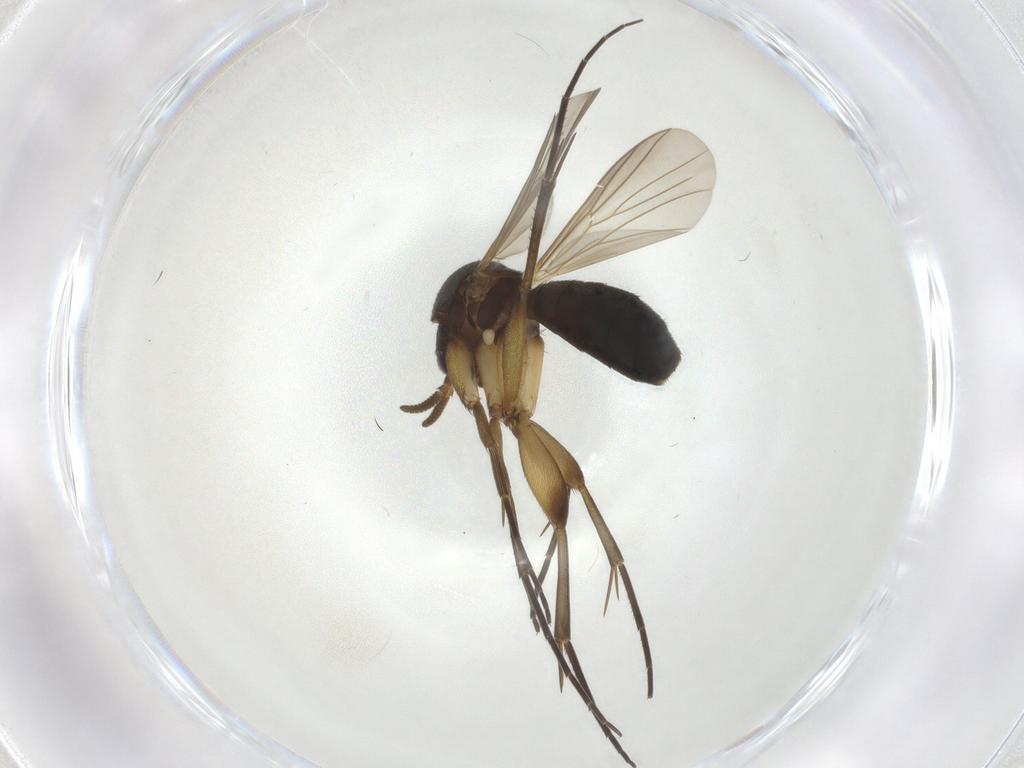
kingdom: Animalia
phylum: Arthropoda
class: Insecta
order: Diptera
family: Mycetophilidae
